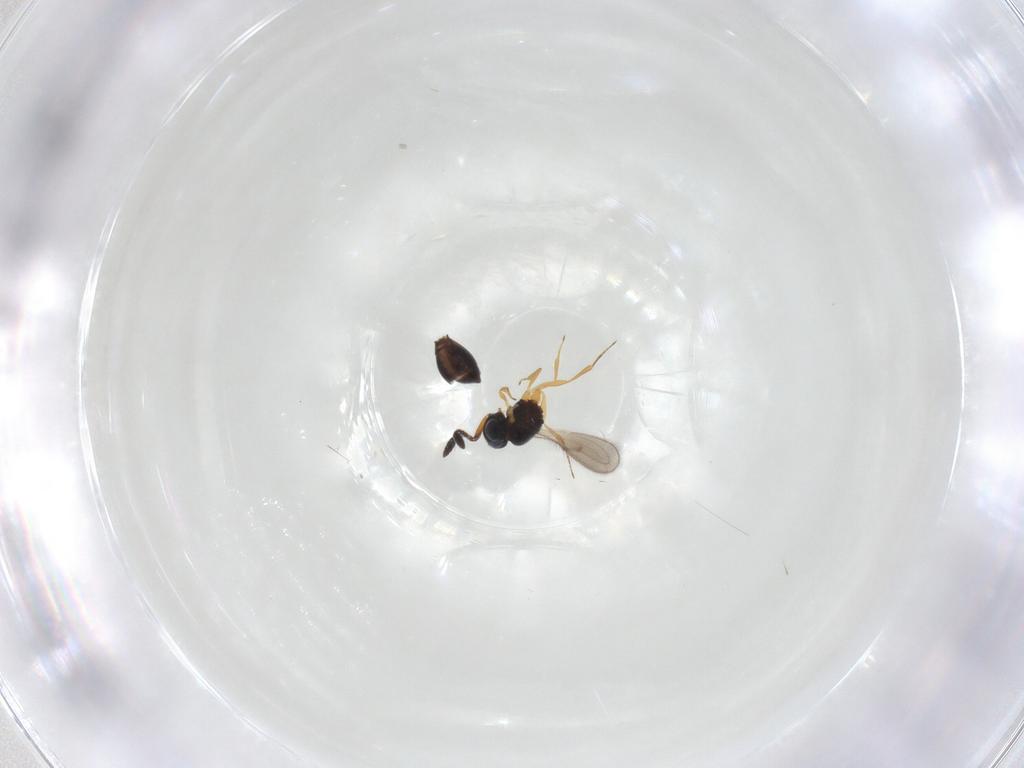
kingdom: Animalia
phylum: Arthropoda
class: Insecta
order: Hymenoptera
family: Scelionidae
